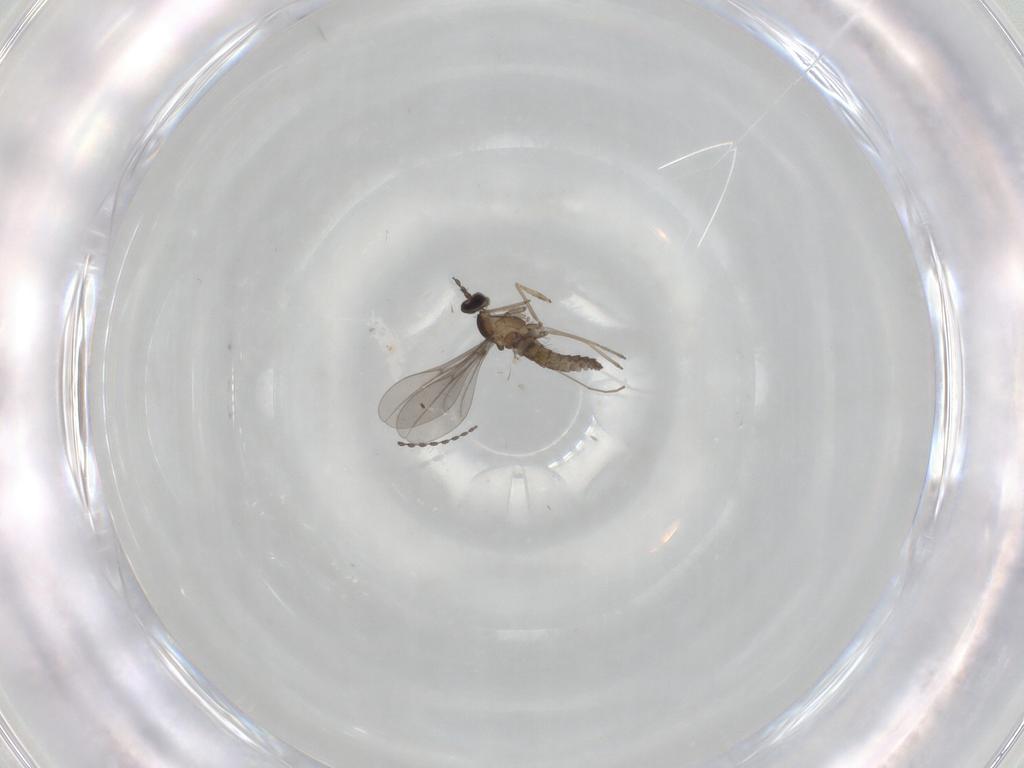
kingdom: Animalia
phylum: Arthropoda
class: Insecta
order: Diptera
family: Cecidomyiidae
